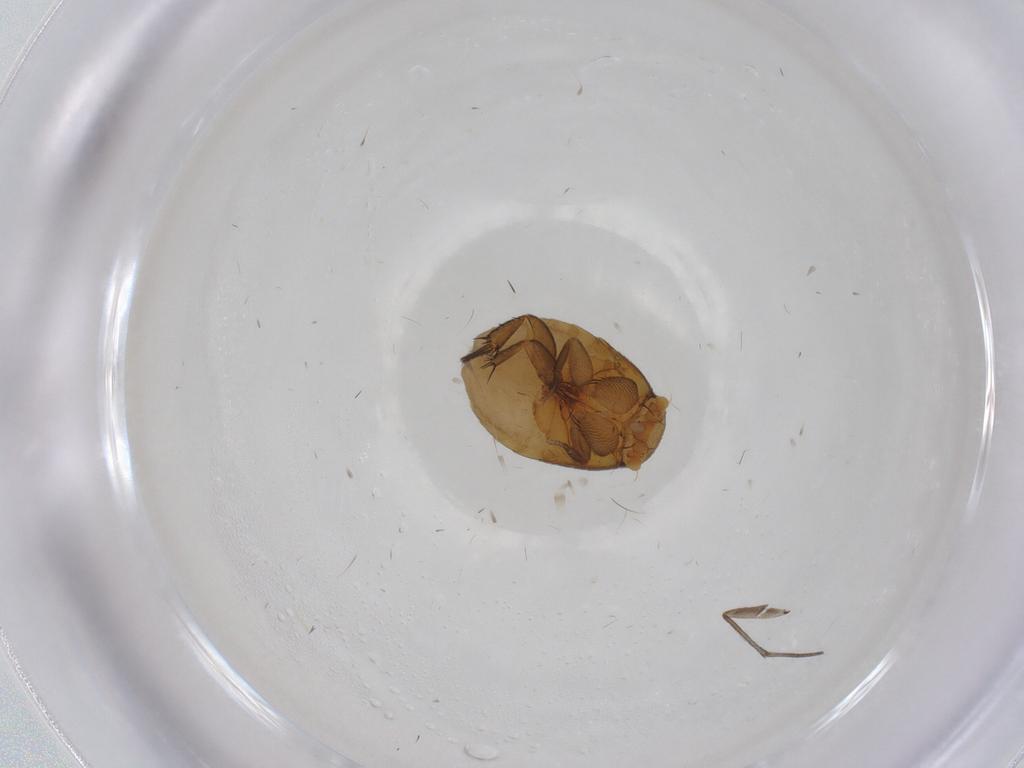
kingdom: Animalia
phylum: Arthropoda
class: Insecta
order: Diptera
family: Phoridae
